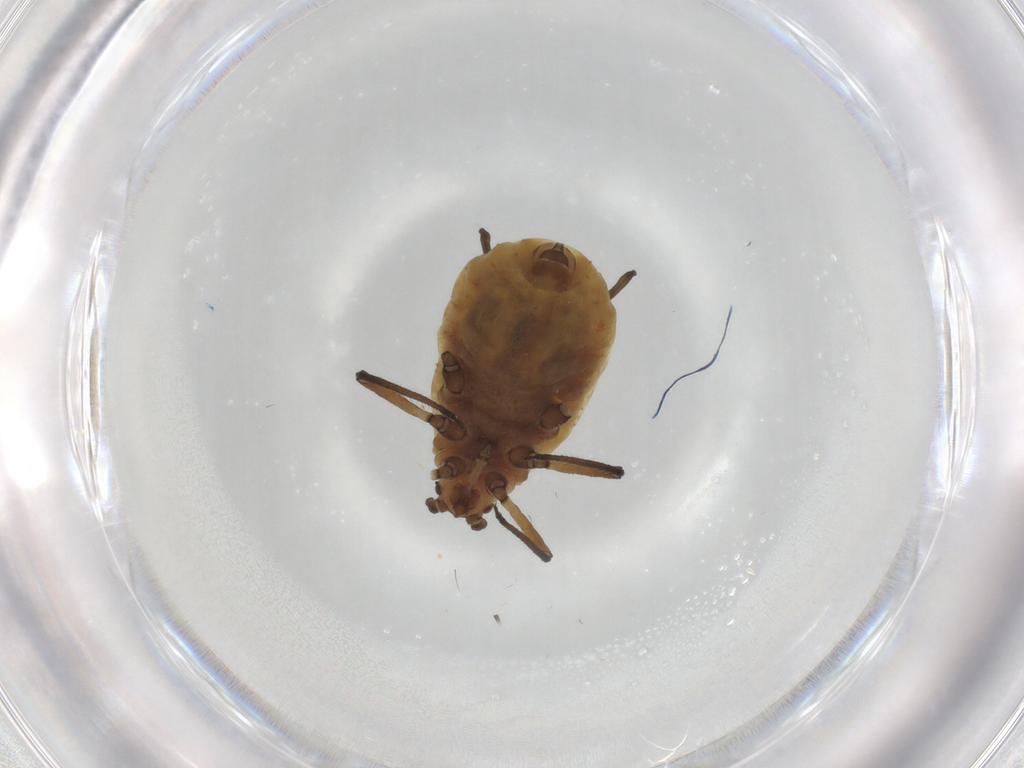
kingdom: Animalia
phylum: Arthropoda
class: Insecta
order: Hemiptera
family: Aphididae
